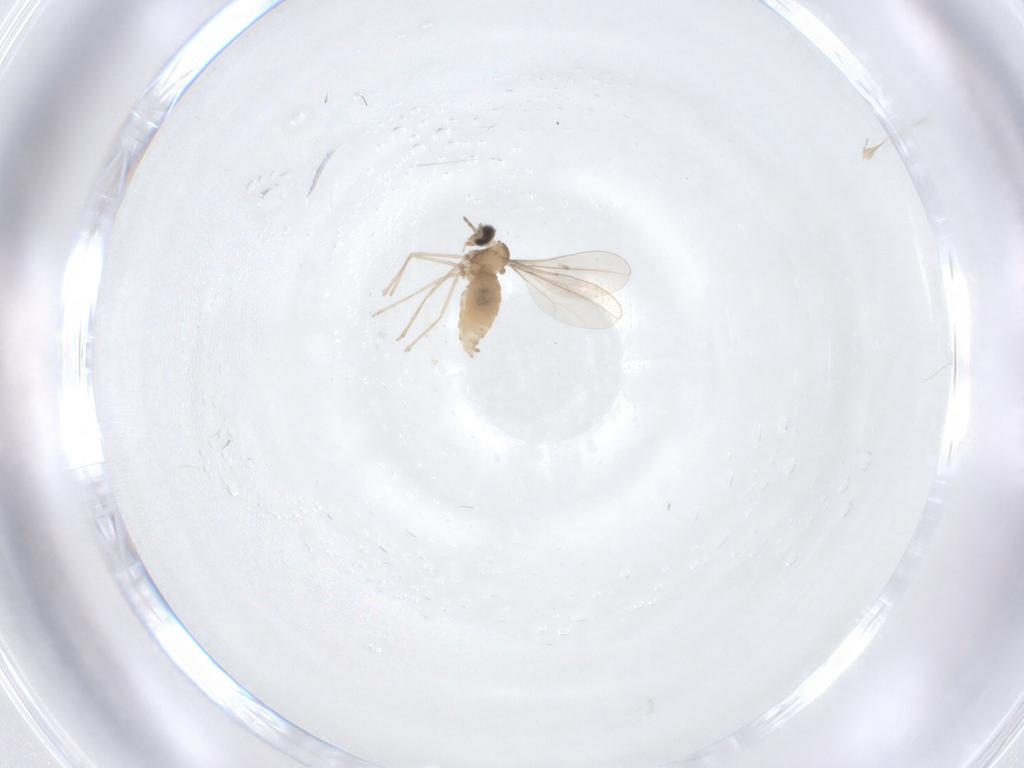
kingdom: Animalia
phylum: Arthropoda
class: Insecta
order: Diptera
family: Cecidomyiidae
